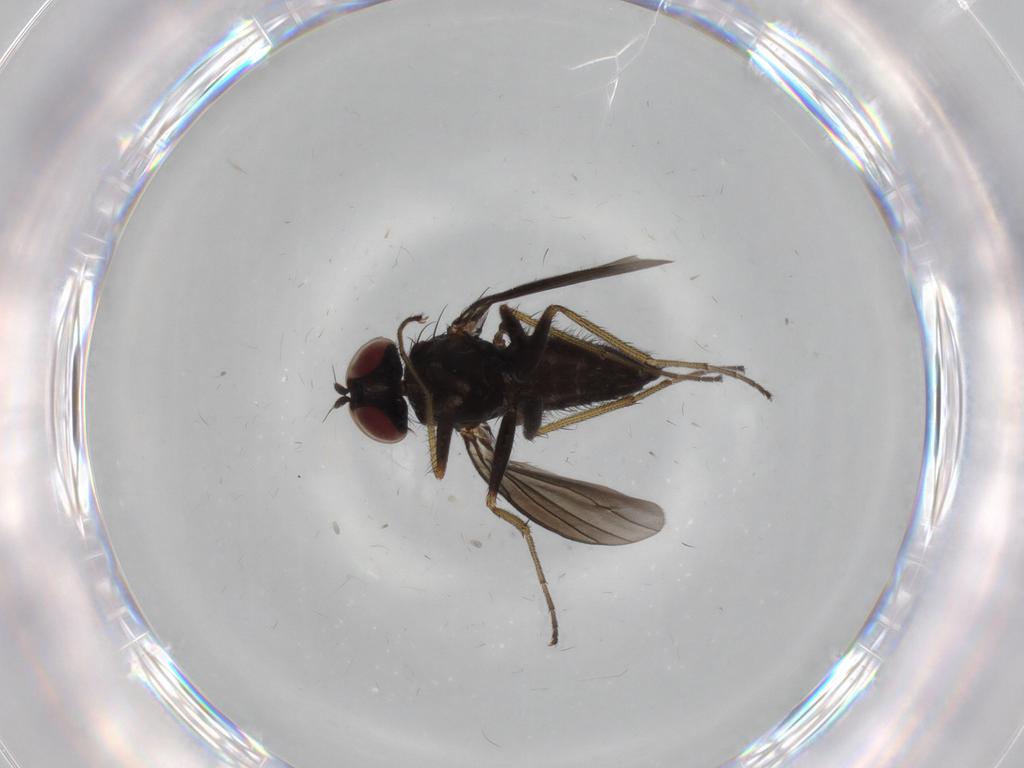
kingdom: Animalia
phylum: Arthropoda
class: Insecta
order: Diptera
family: Dolichopodidae
